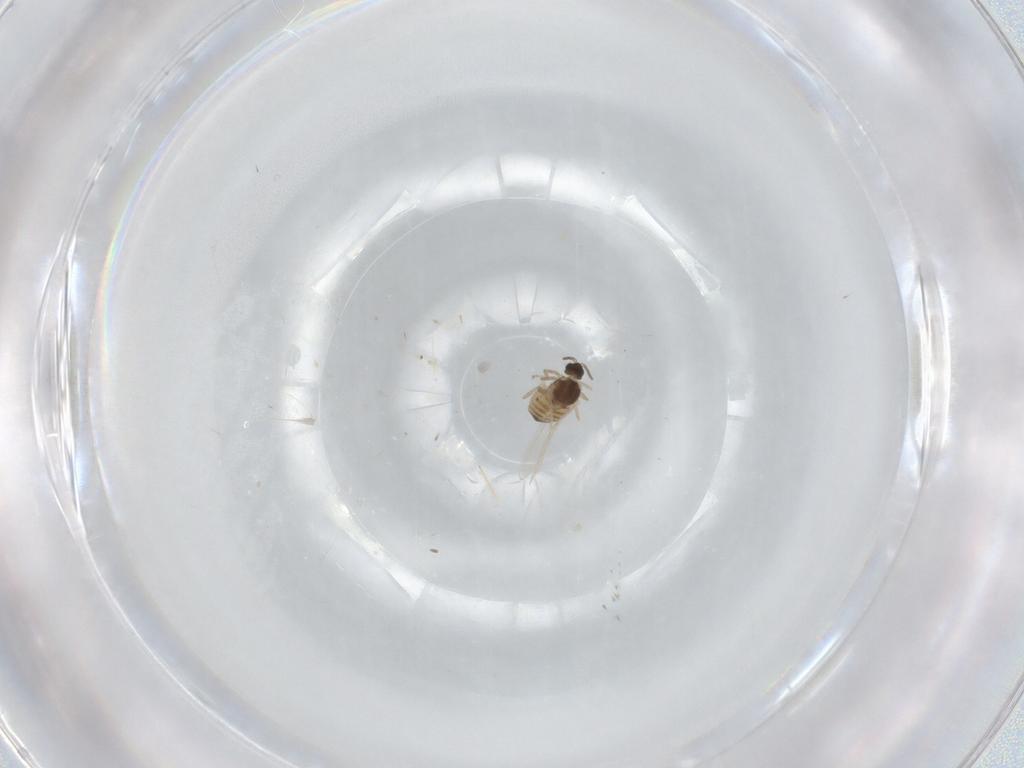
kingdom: Animalia
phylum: Arthropoda
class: Insecta
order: Diptera
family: Cecidomyiidae
